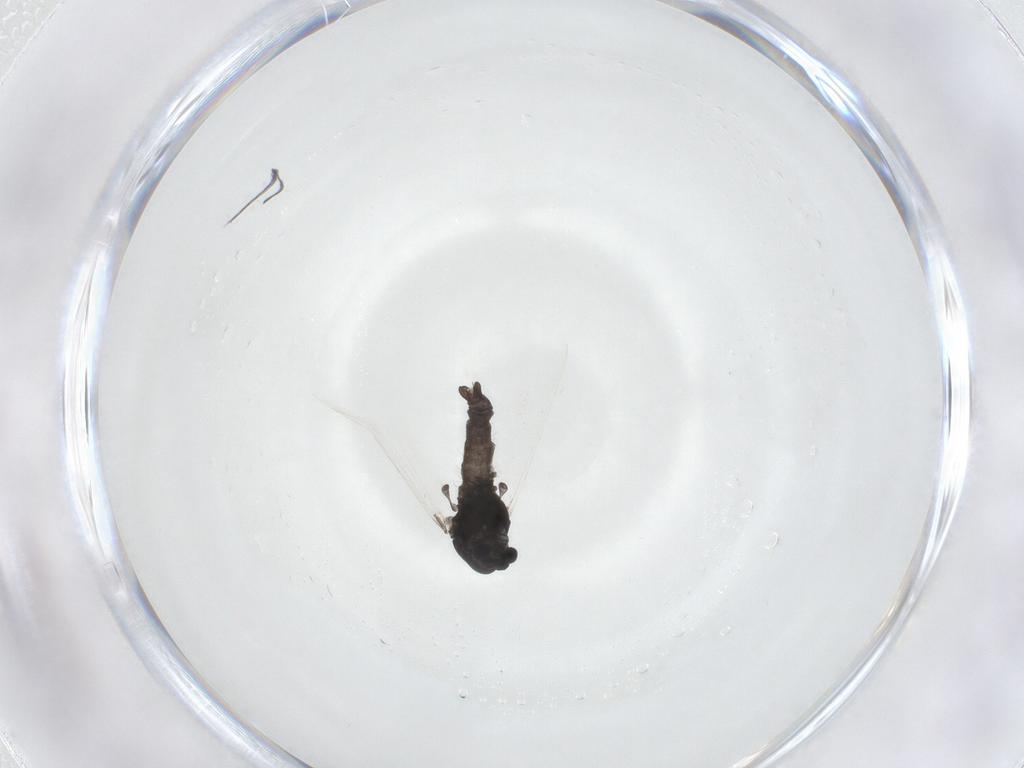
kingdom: Animalia
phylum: Arthropoda
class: Insecta
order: Diptera
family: Chironomidae
